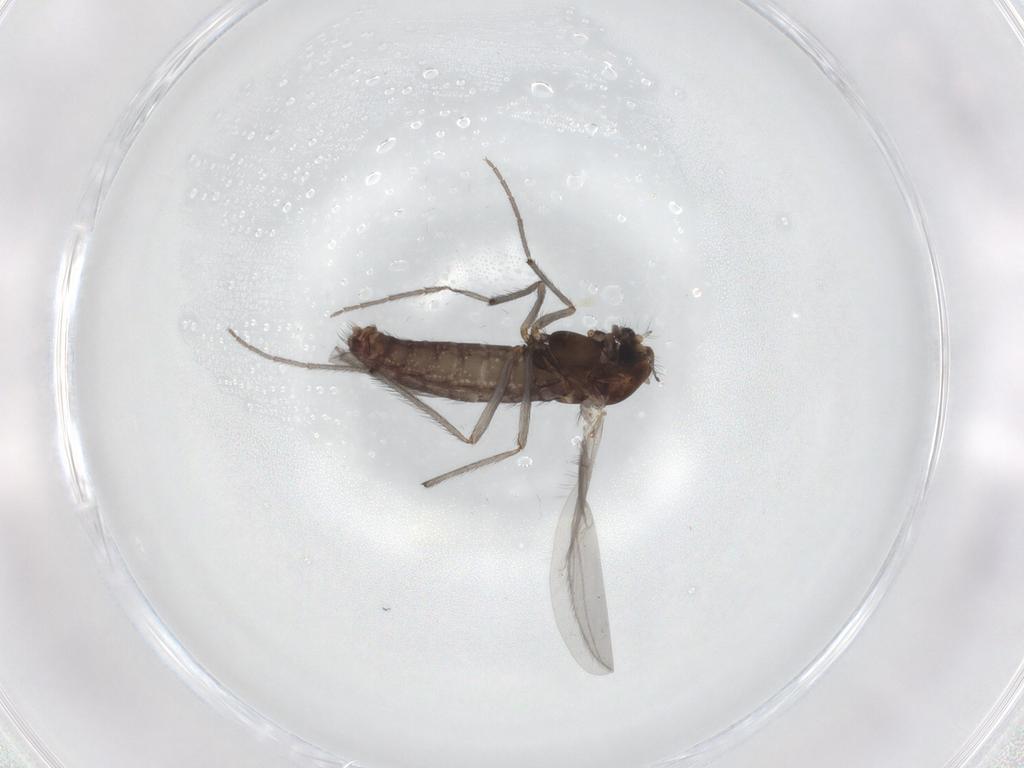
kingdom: Animalia
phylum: Arthropoda
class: Insecta
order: Diptera
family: Chironomidae
